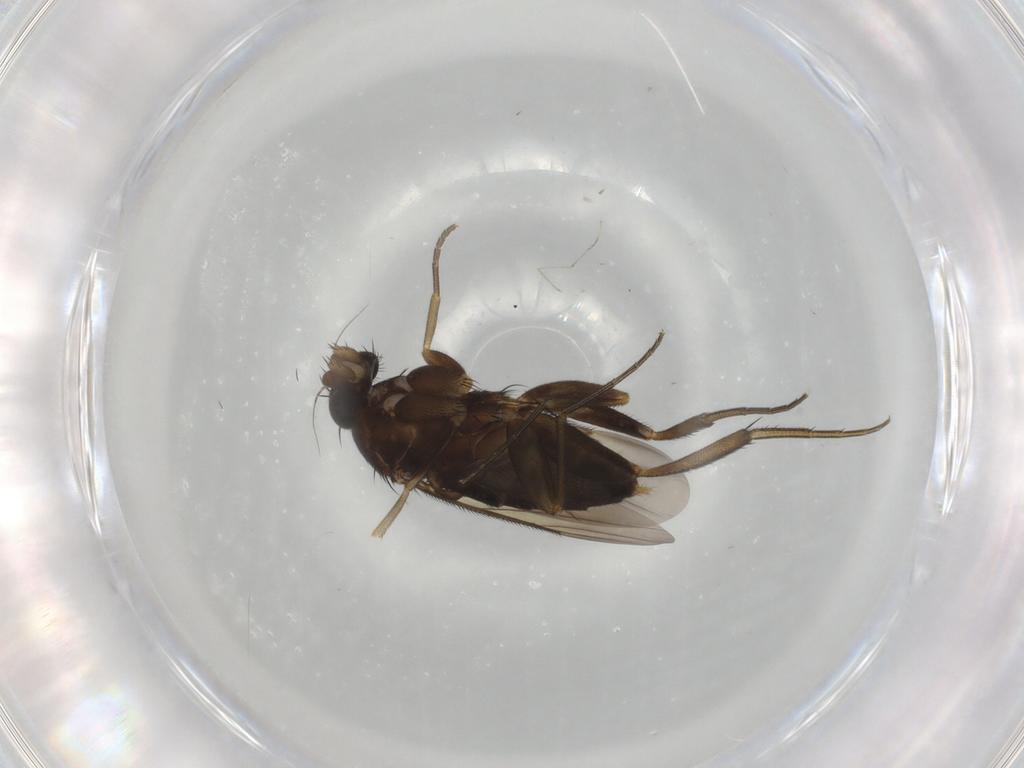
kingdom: Animalia
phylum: Arthropoda
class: Insecta
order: Diptera
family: Phoridae
